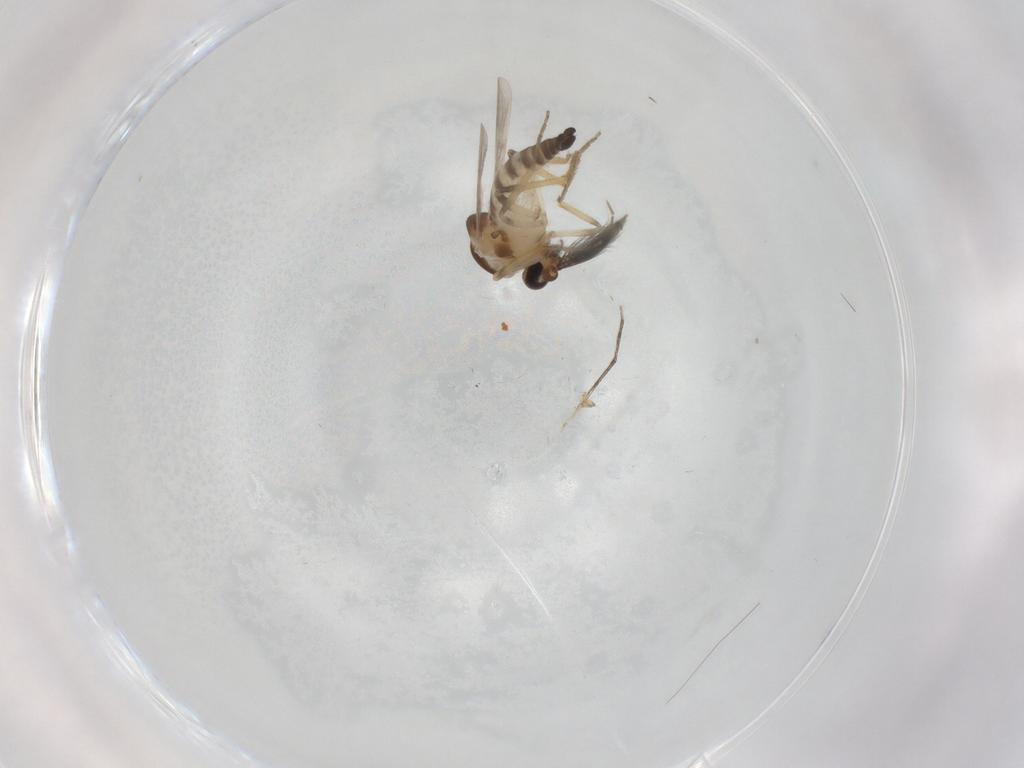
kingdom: Animalia
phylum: Arthropoda
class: Insecta
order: Diptera
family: Ceratopogonidae
